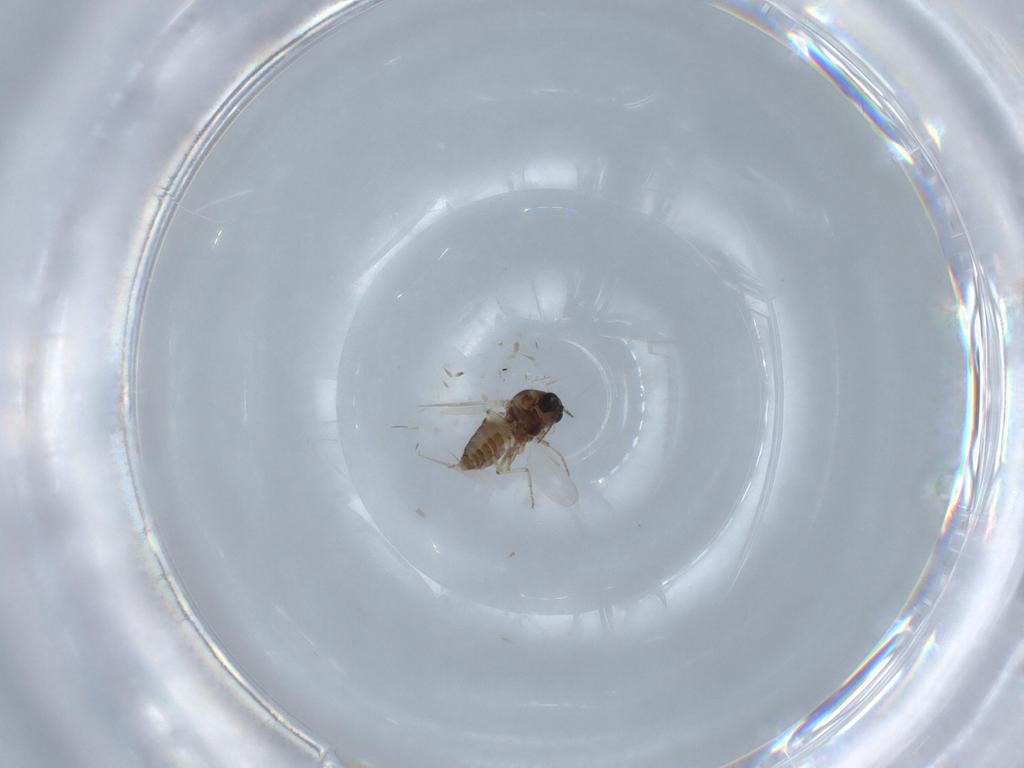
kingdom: Animalia
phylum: Arthropoda
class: Insecta
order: Diptera
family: Ceratopogonidae
